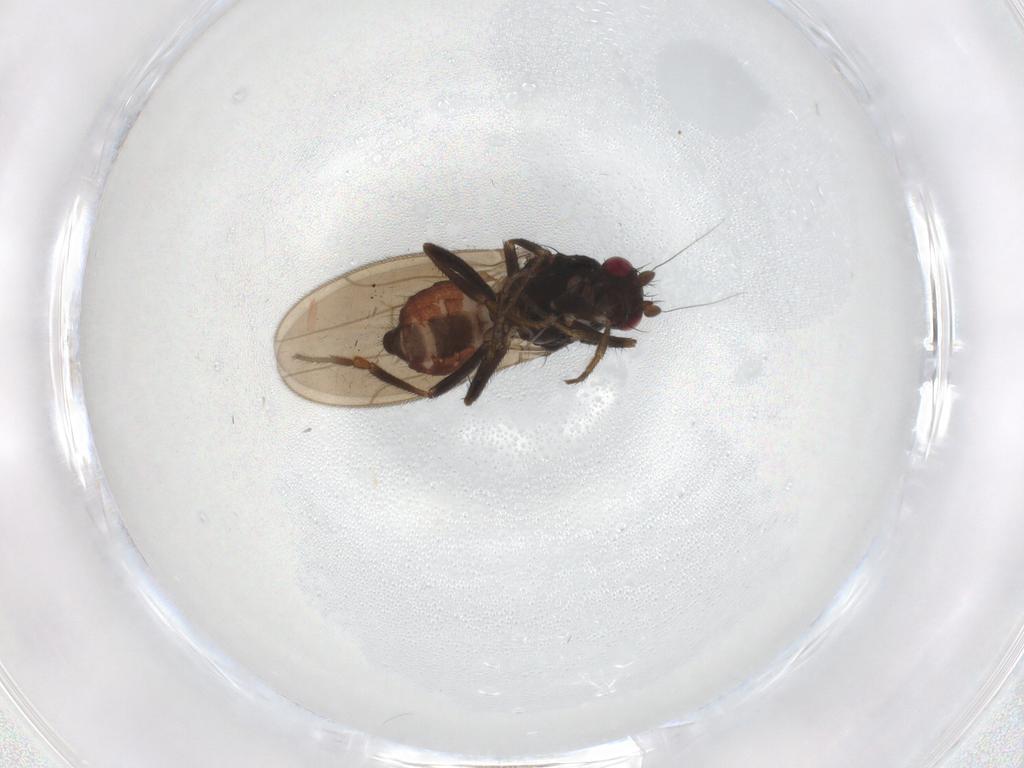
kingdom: Animalia
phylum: Arthropoda
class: Insecta
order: Diptera
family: Sphaeroceridae
